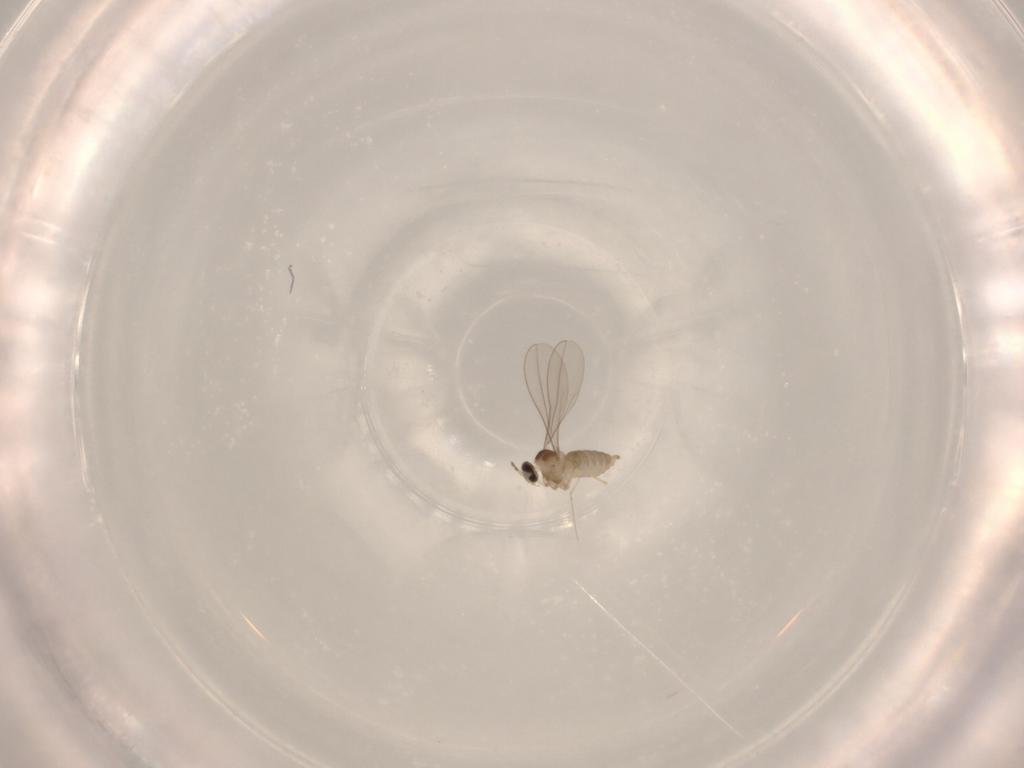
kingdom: Animalia
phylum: Arthropoda
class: Insecta
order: Diptera
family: Cecidomyiidae
